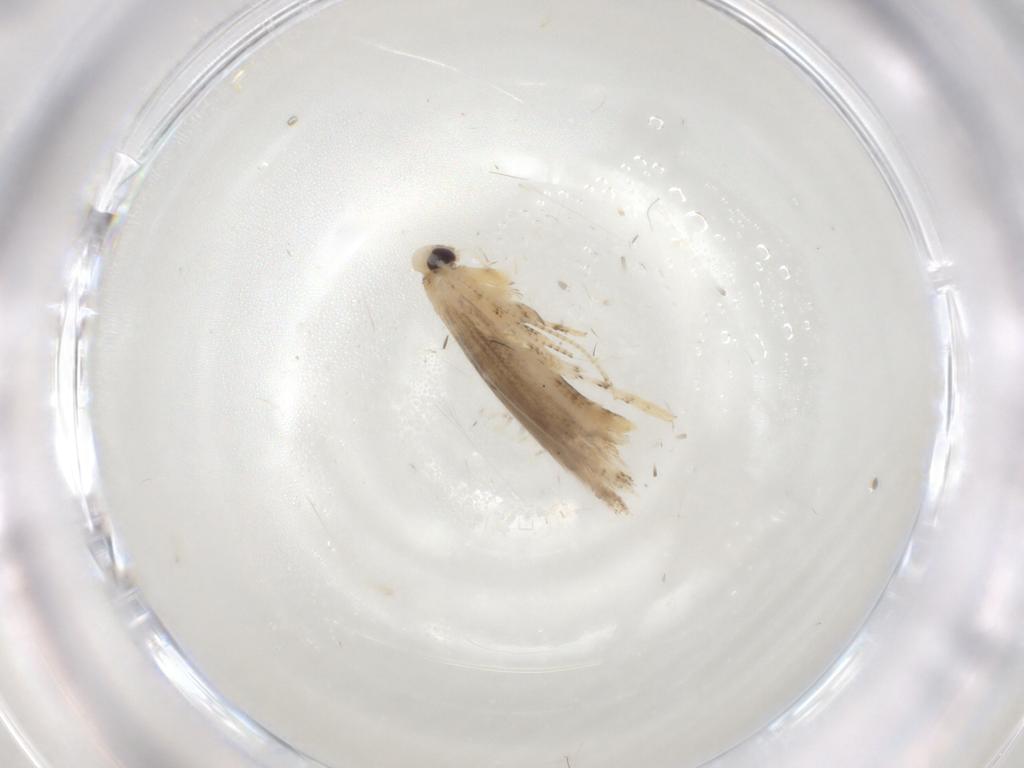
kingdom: Animalia
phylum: Arthropoda
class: Insecta
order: Lepidoptera
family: Gracillariidae
